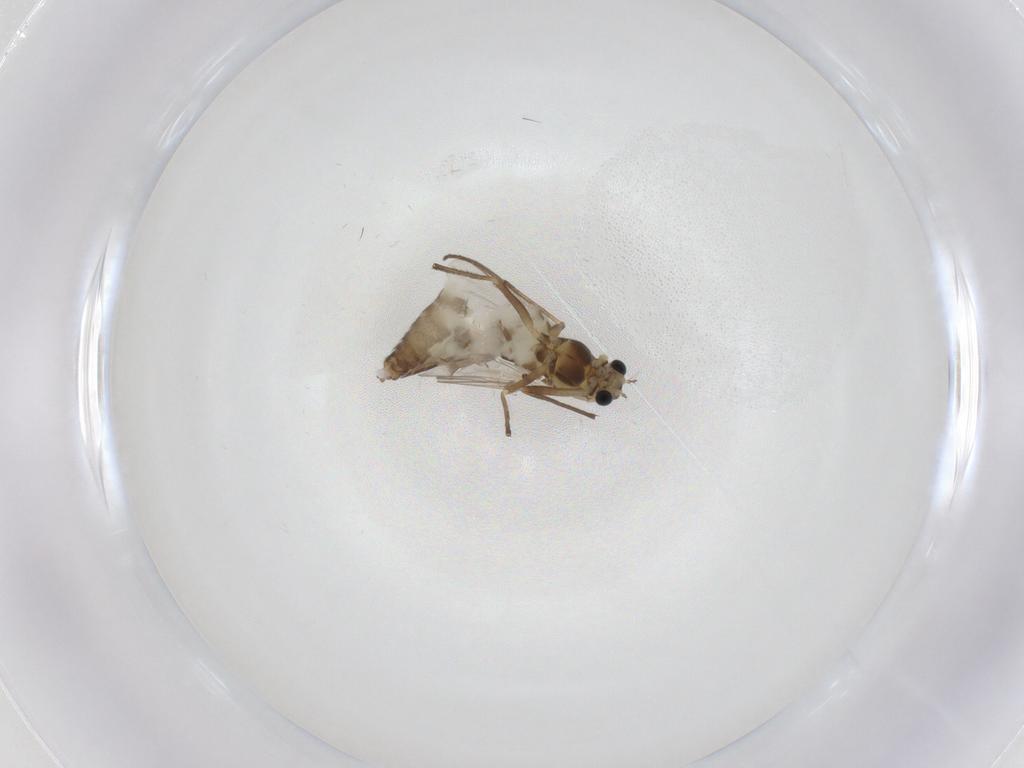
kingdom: Animalia
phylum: Arthropoda
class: Insecta
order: Diptera
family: Chironomidae
